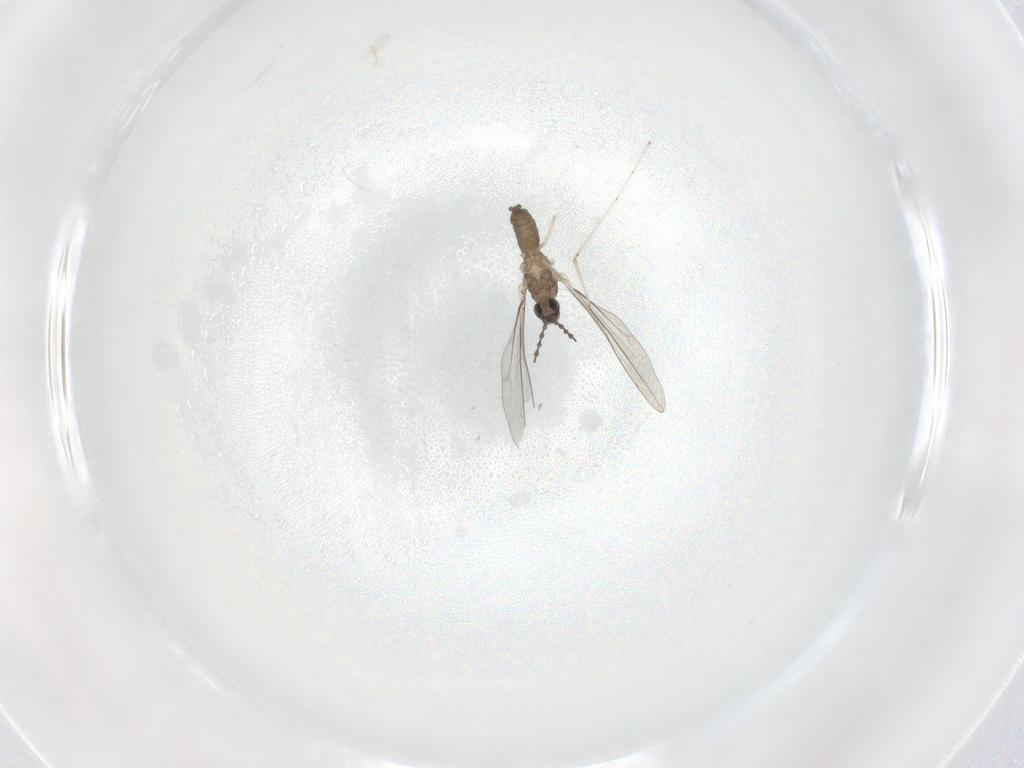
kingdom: Animalia
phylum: Arthropoda
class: Insecta
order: Diptera
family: Cecidomyiidae
